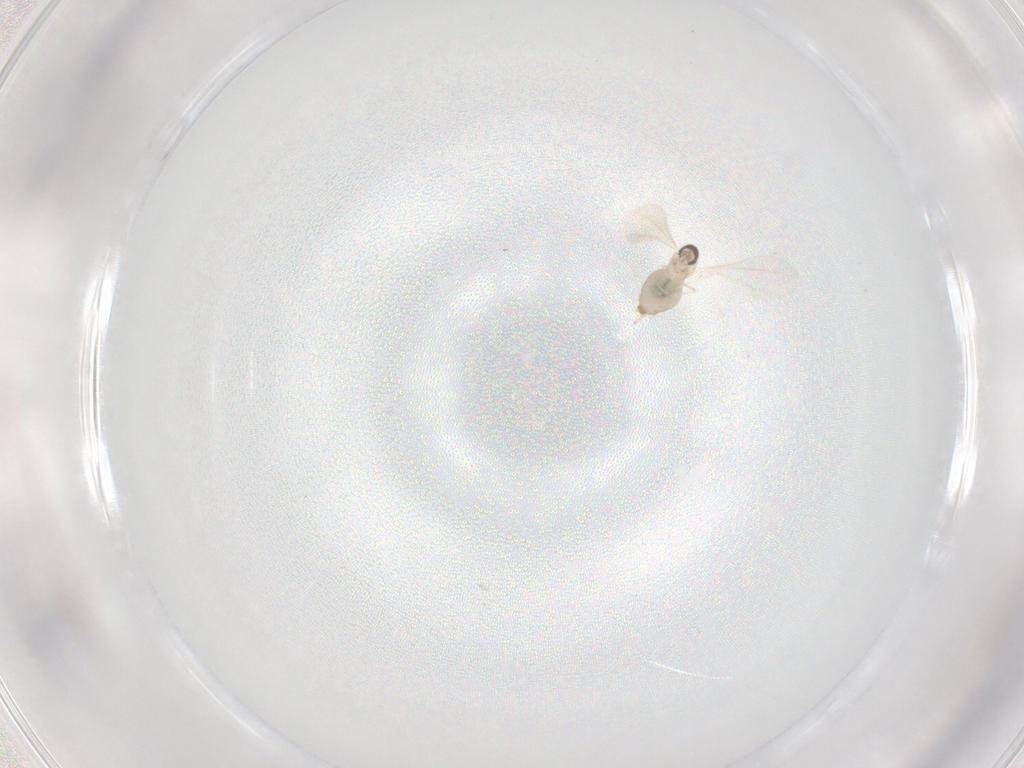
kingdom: Animalia
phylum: Arthropoda
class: Insecta
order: Diptera
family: Cecidomyiidae
